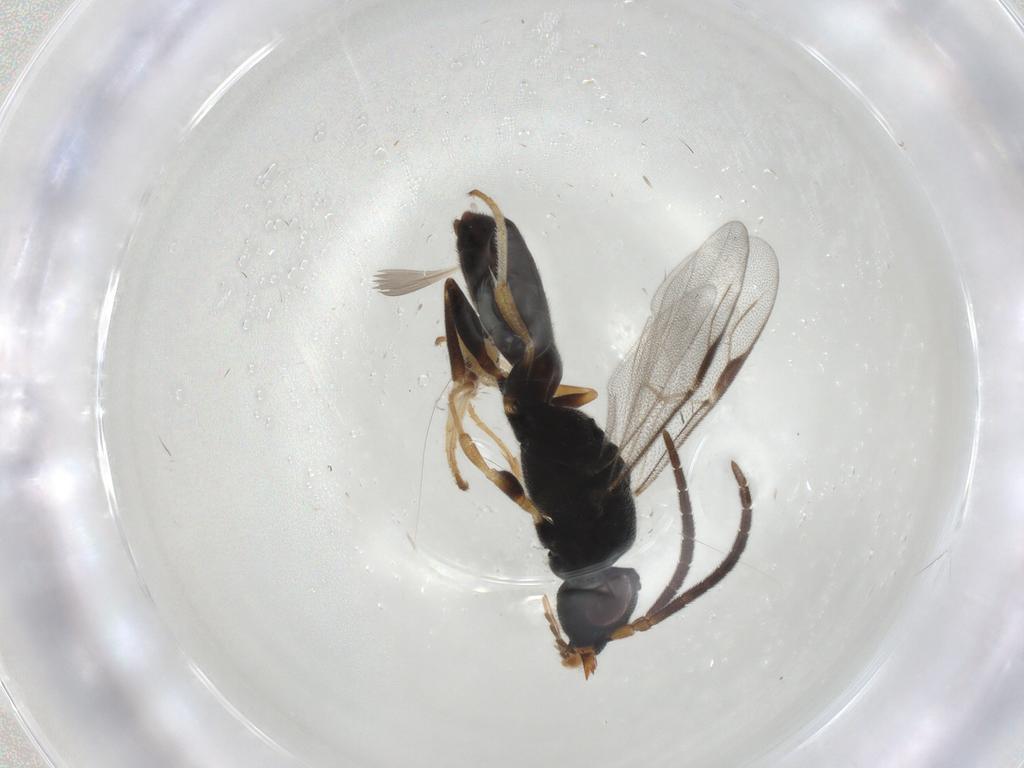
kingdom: Animalia
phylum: Arthropoda
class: Insecta
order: Hymenoptera
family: Dryinidae
